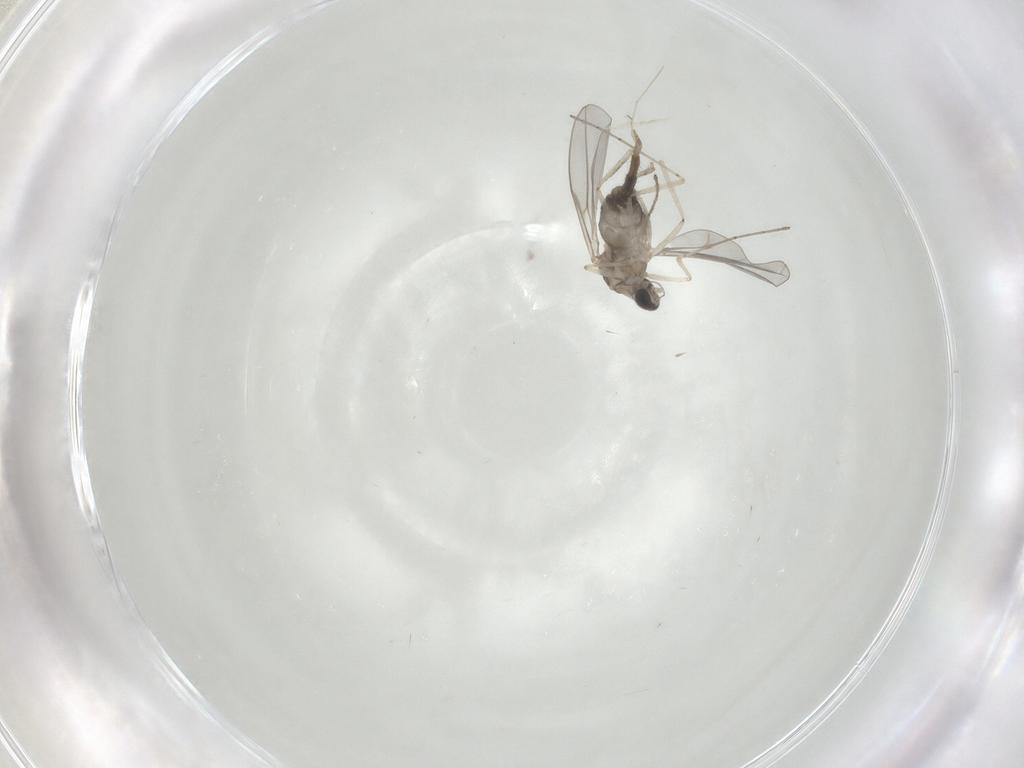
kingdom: Animalia
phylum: Arthropoda
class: Insecta
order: Diptera
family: Cecidomyiidae
